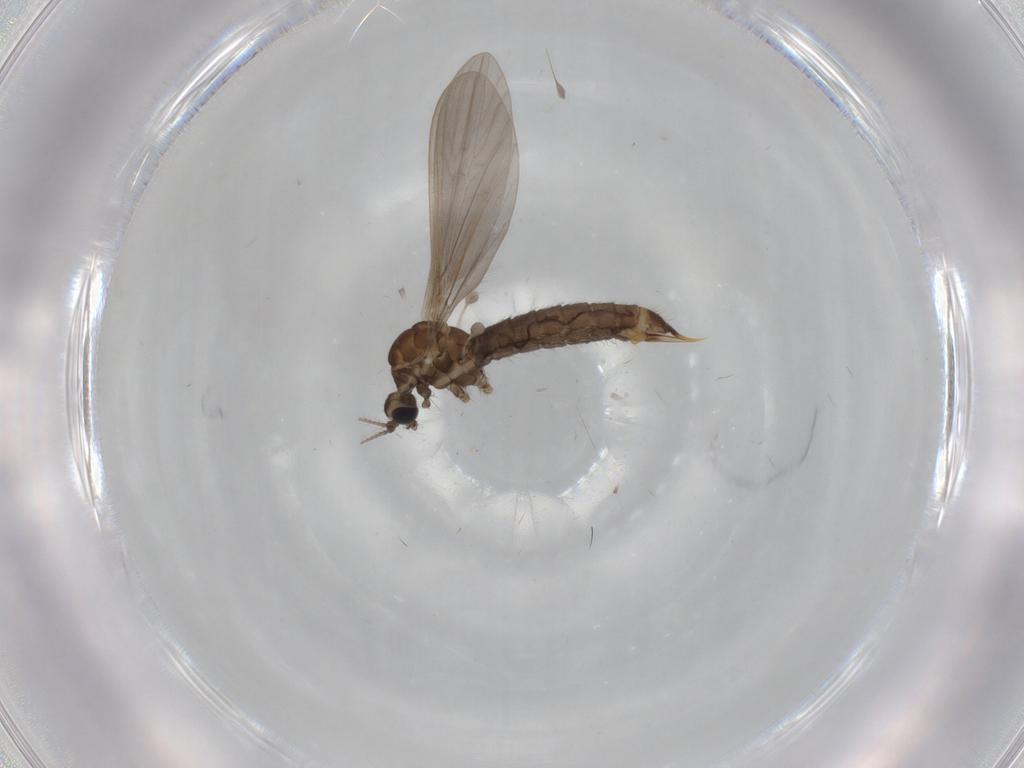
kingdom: Animalia
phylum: Arthropoda
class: Insecta
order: Diptera
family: Limoniidae
